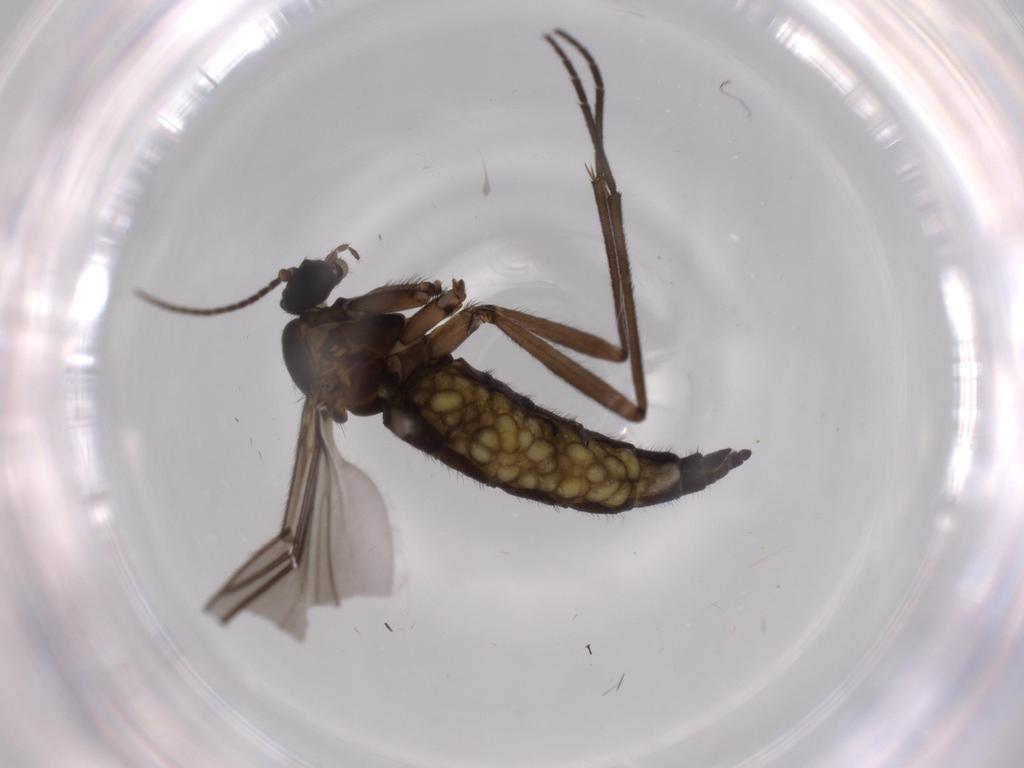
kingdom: Animalia
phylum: Arthropoda
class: Insecta
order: Diptera
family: Sciaridae
